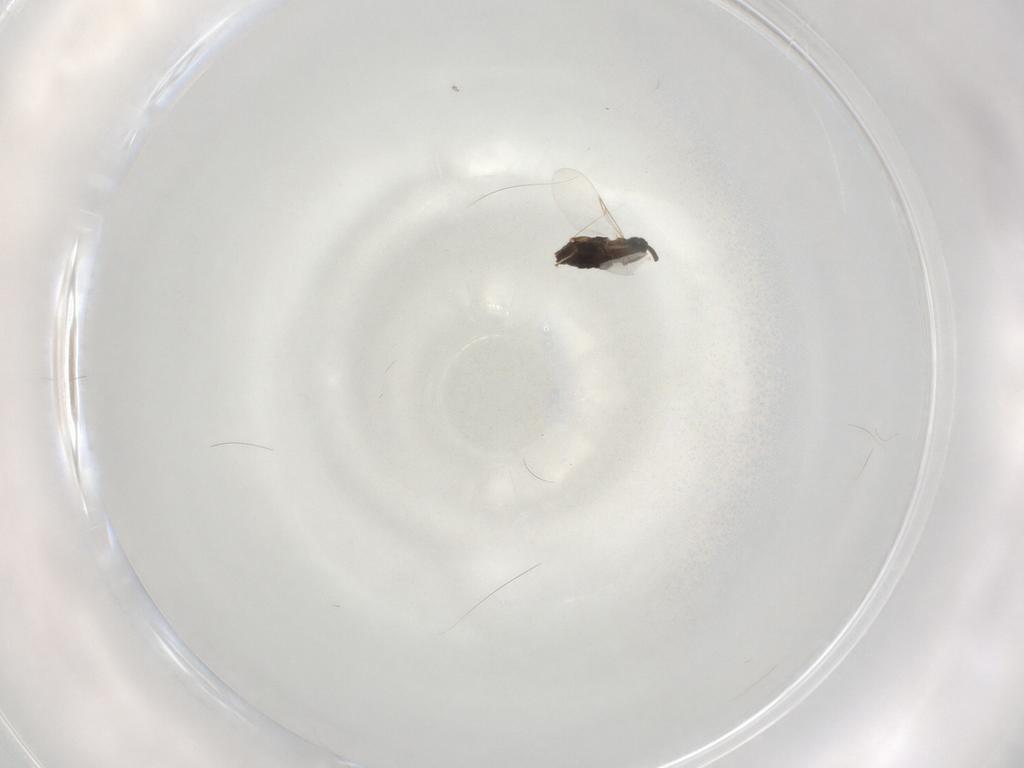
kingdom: Animalia
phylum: Arthropoda
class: Insecta
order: Diptera
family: Scatopsidae
